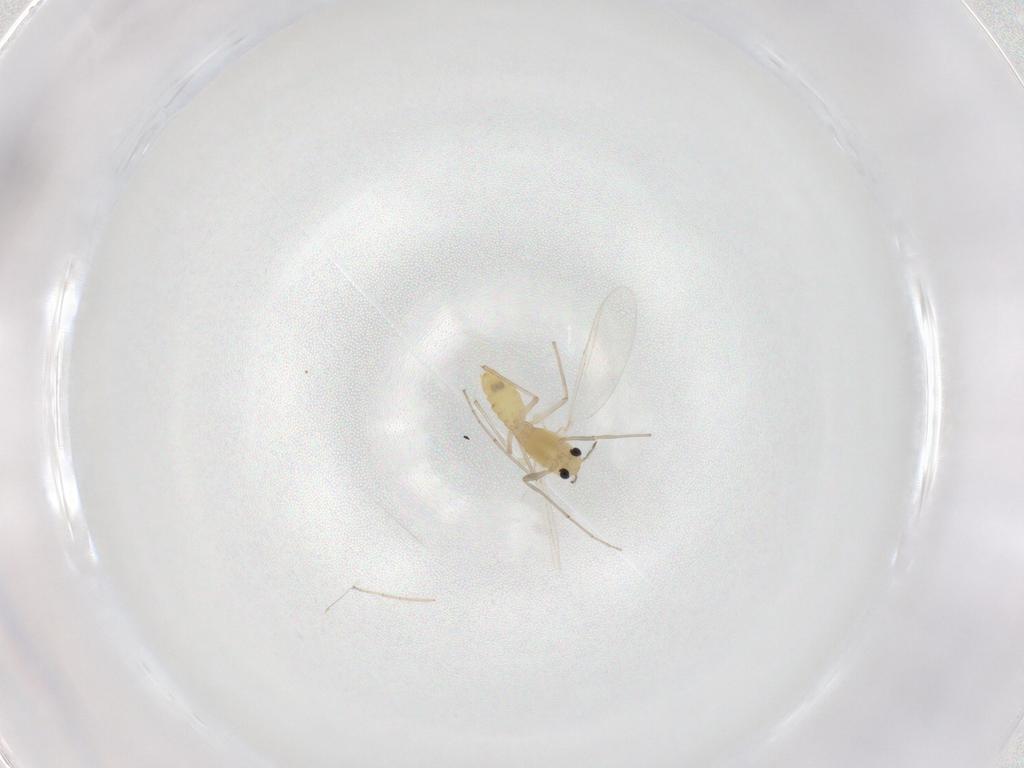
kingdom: Animalia
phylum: Arthropoda
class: Insecta
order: Diptera
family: Chironomidae
